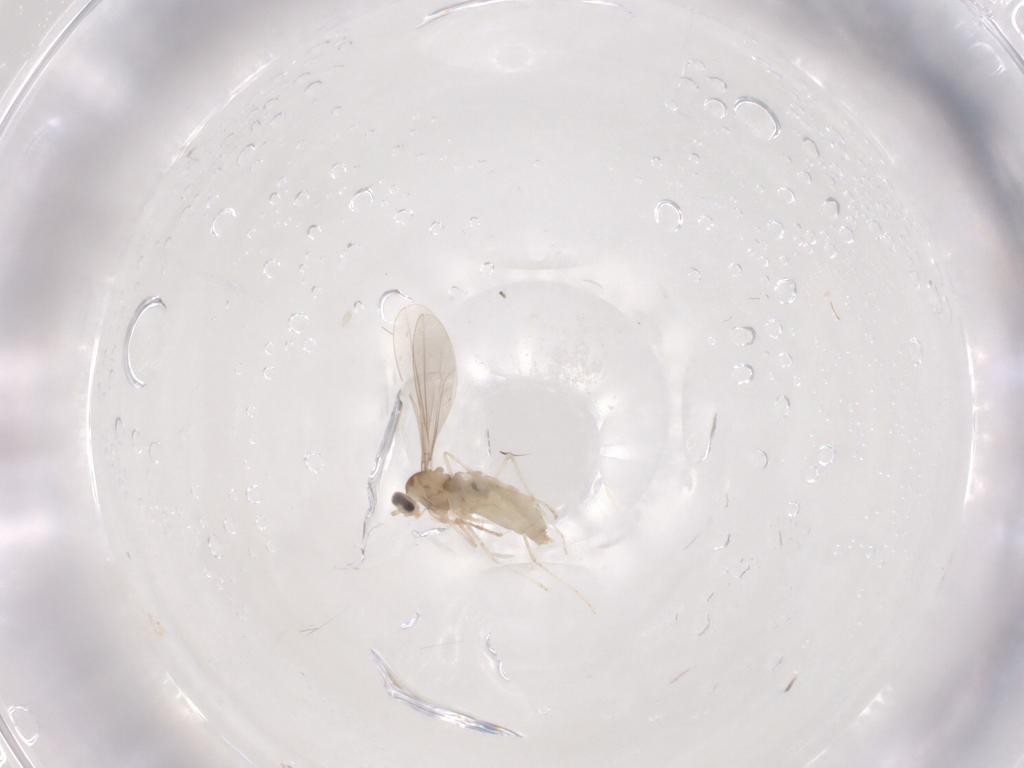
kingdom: Animalia
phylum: Arthropoda
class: Insecta
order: Diptera
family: Cecidomyiidae
